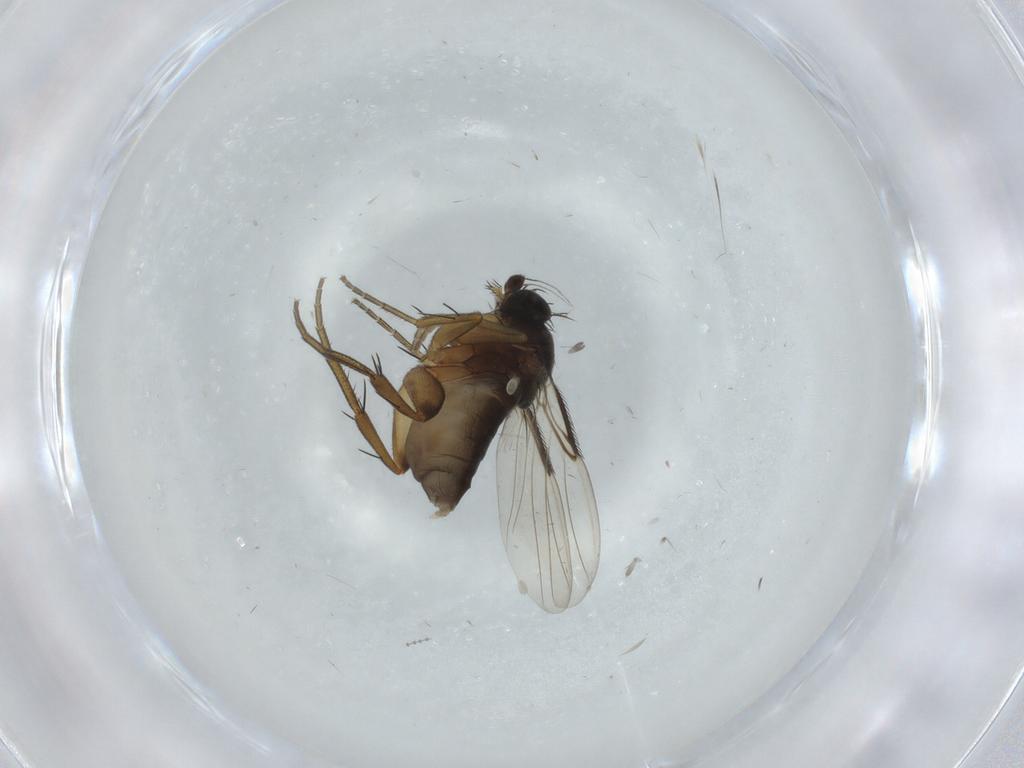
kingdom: Animalia
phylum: Arthropoda
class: Insecta
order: Diptera
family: Phoridae
